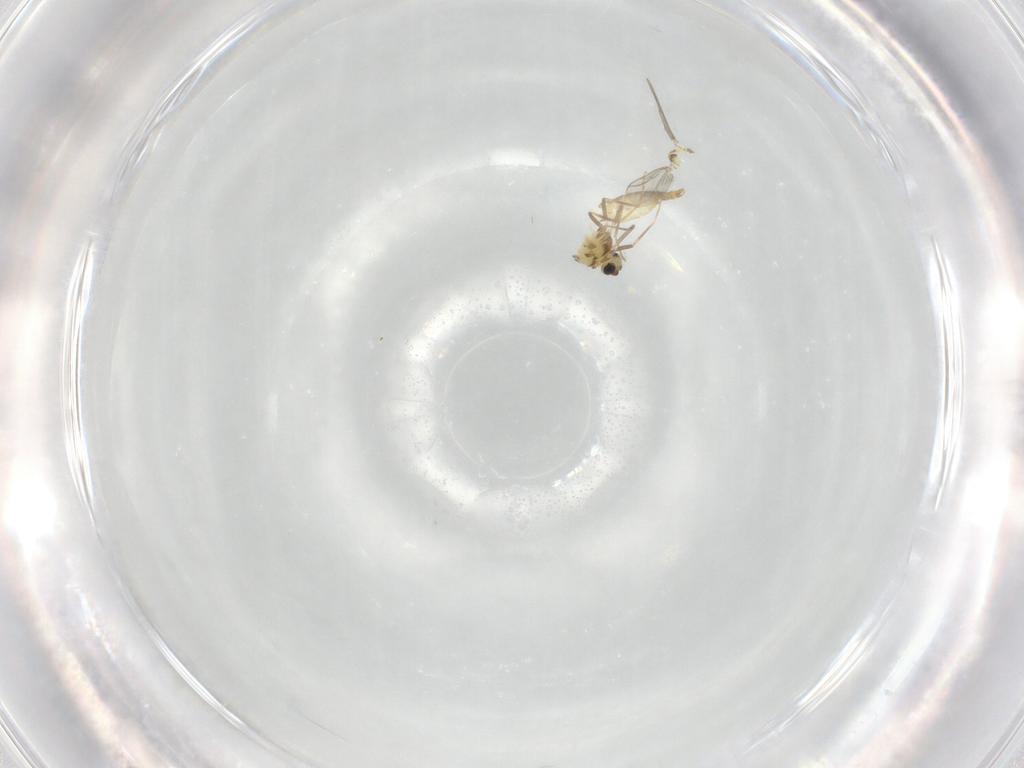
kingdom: Animalia
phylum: Arthropoda
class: Insecta
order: Diptera
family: Chironomidae
